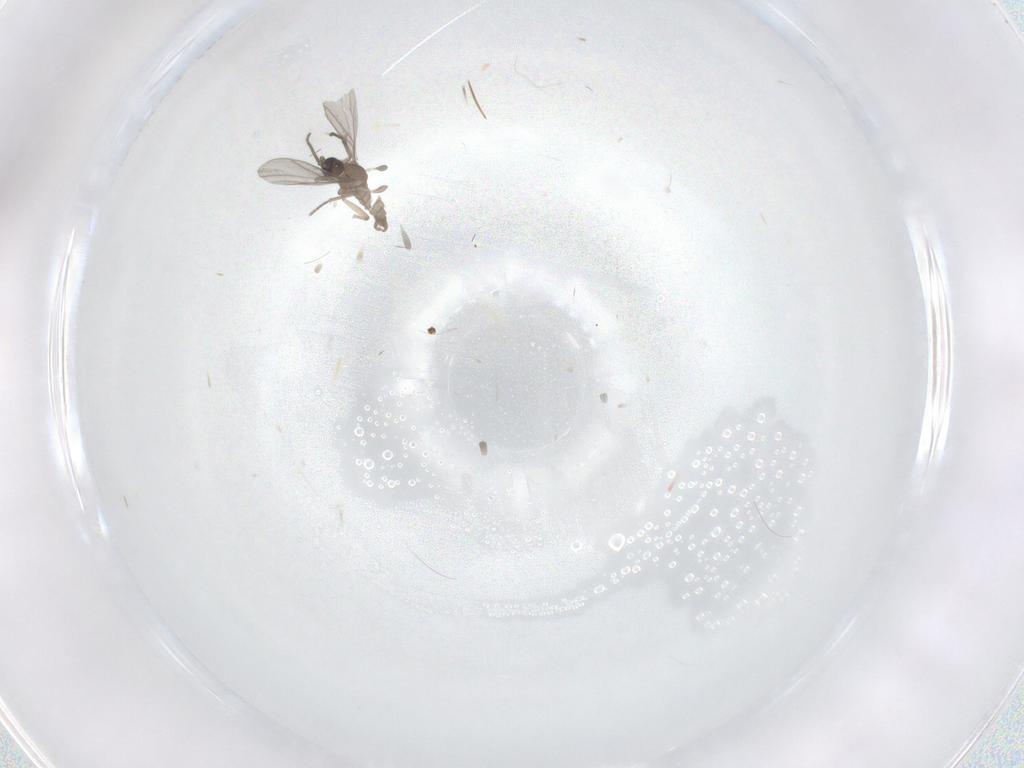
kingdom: Animalia
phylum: Arthropoda
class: Insecta
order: Diptera
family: Sciaridae
